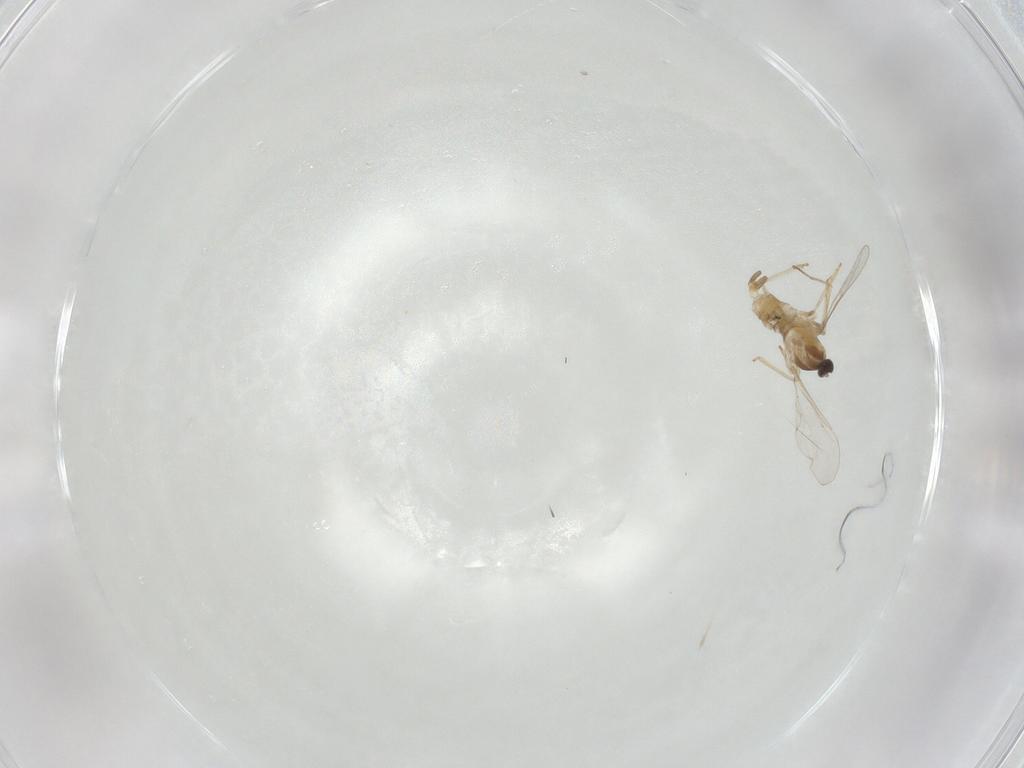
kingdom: Animalia
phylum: Arthropoda
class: Insecta
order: Diptera
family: Cecidomyiidae
